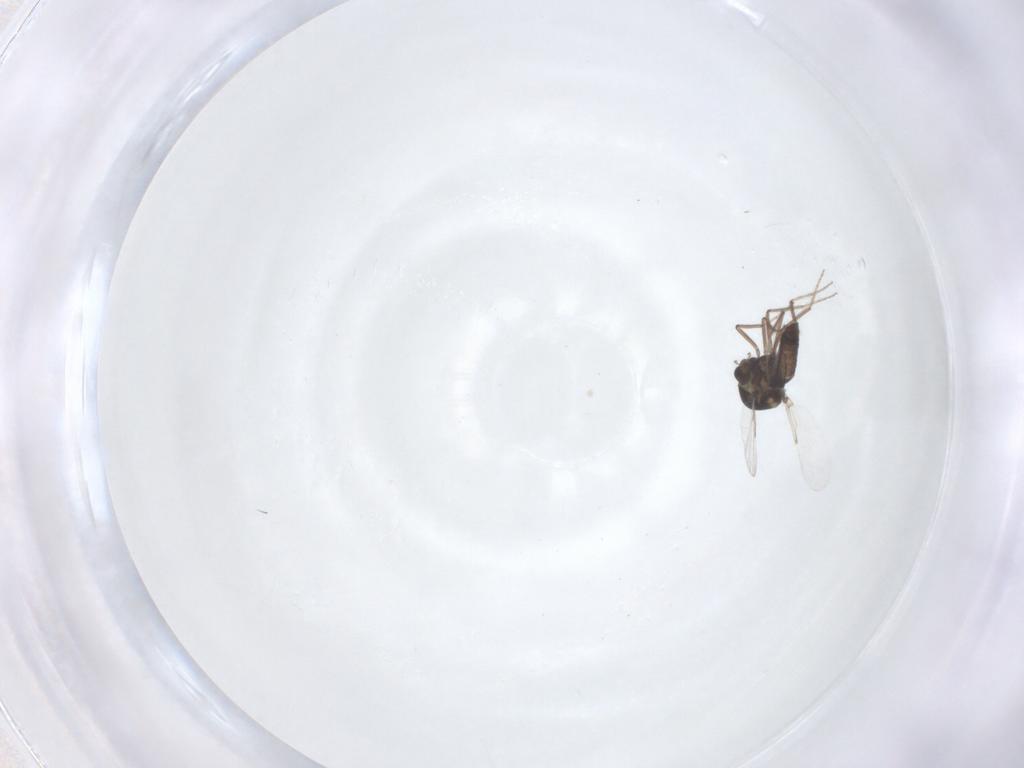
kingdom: Animalia
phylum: Arthropoda
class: Insecta
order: Diptera
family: Ceratopogonidae
